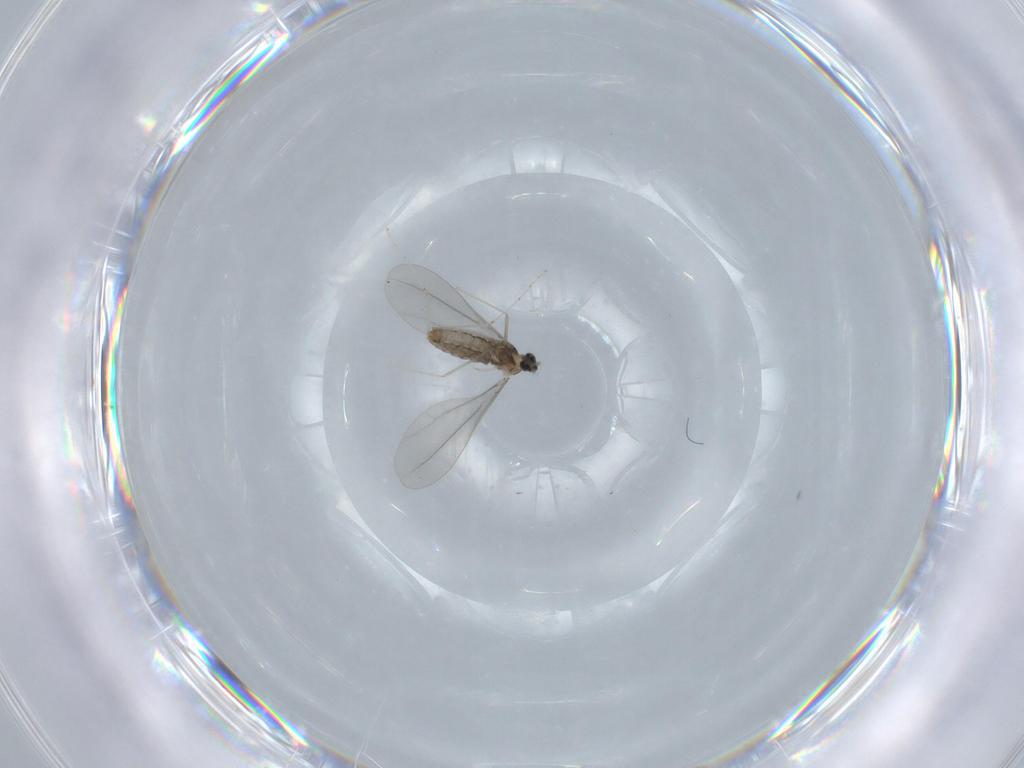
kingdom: Animalia
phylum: Arthropoda
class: Insecta
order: Diptera
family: Cecidomyiidae
